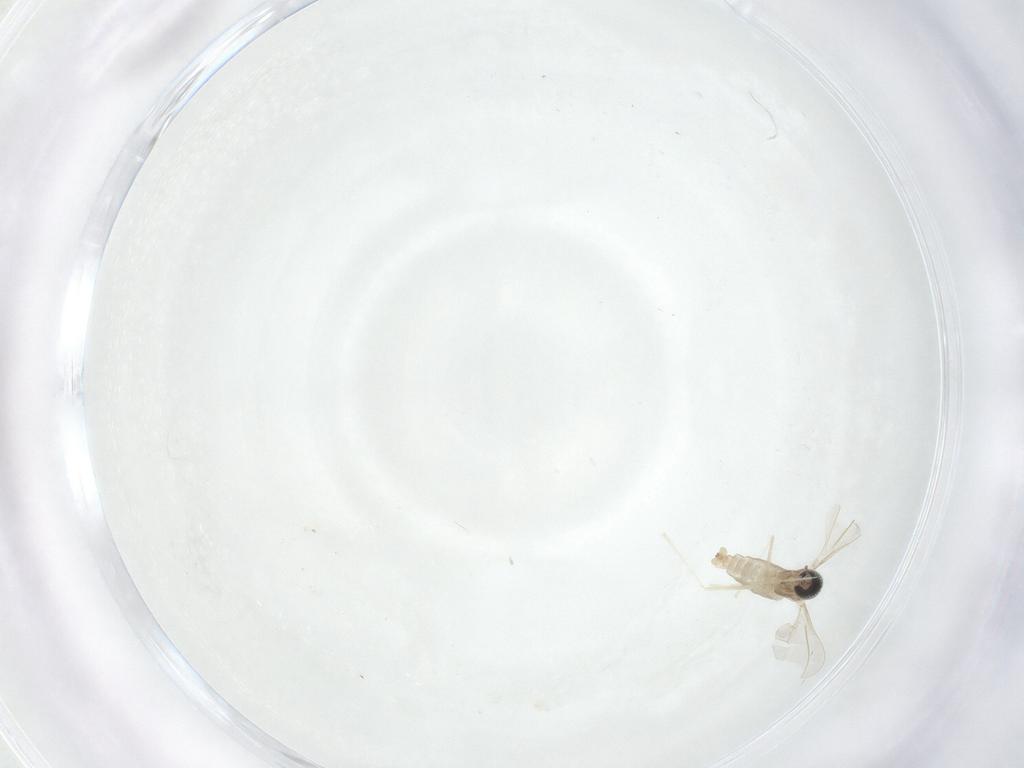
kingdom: Animalia
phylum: Arthropoda
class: Insecta
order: Diptera
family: Cecidomyiidae
